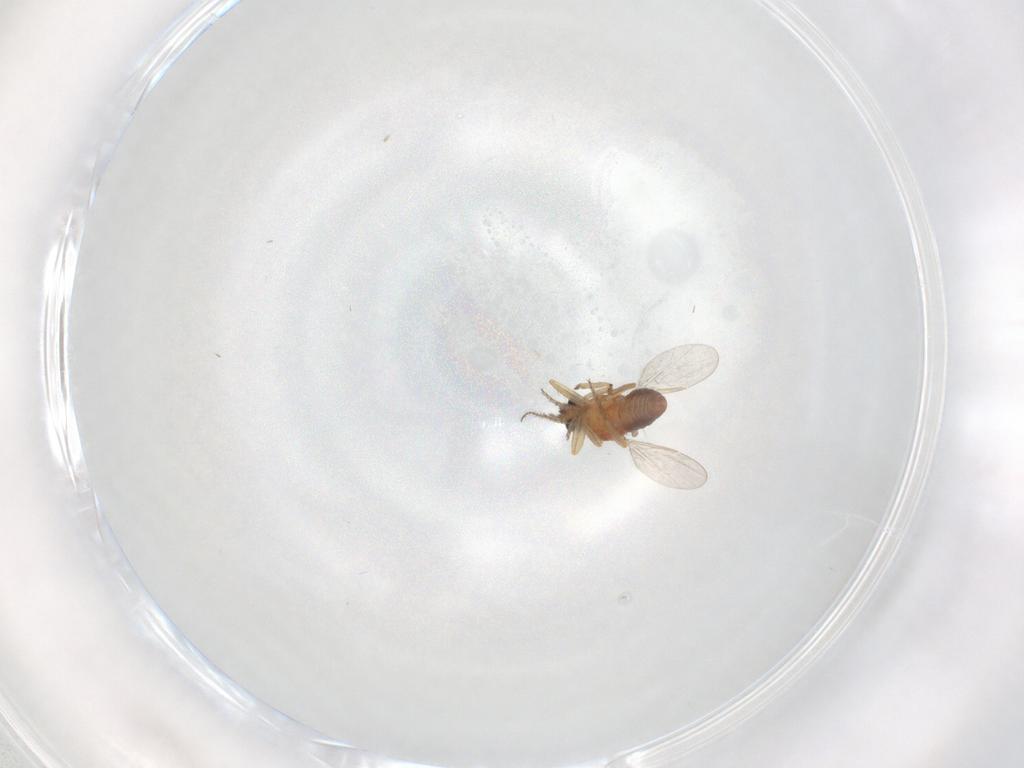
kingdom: Animalia
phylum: Arthropoda
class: Insecta
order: Diptera
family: Ceratopogonidae
